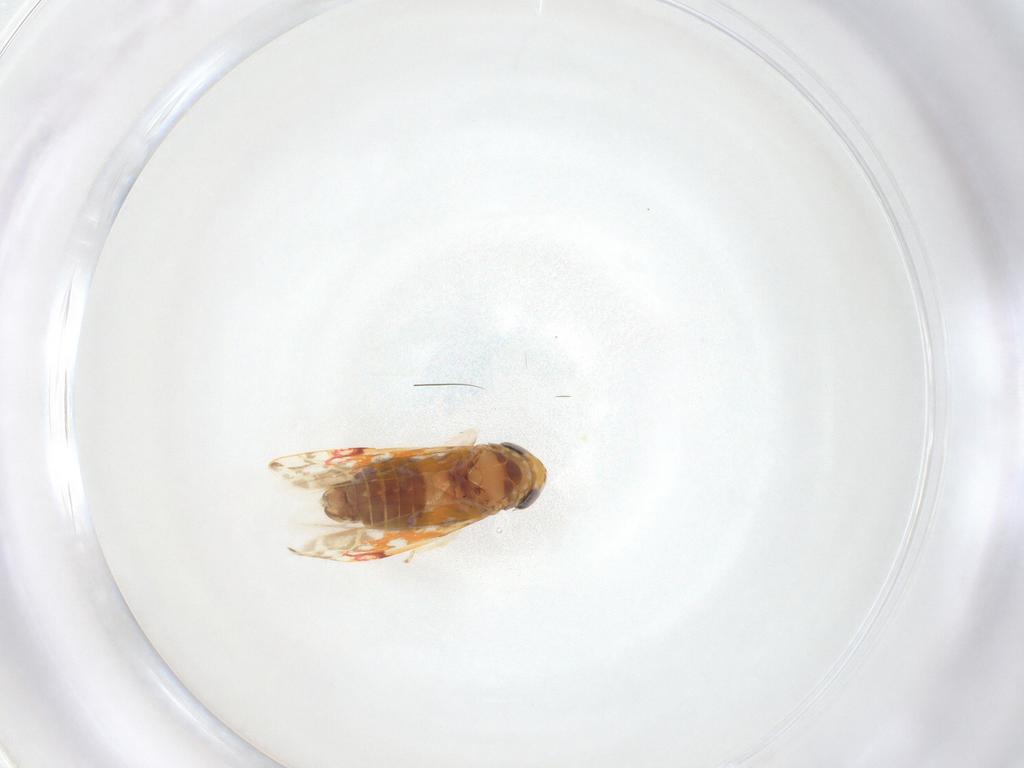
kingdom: Animalia
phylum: Arthropoda
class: Insecta
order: Hemiptera
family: Cicadellidae
